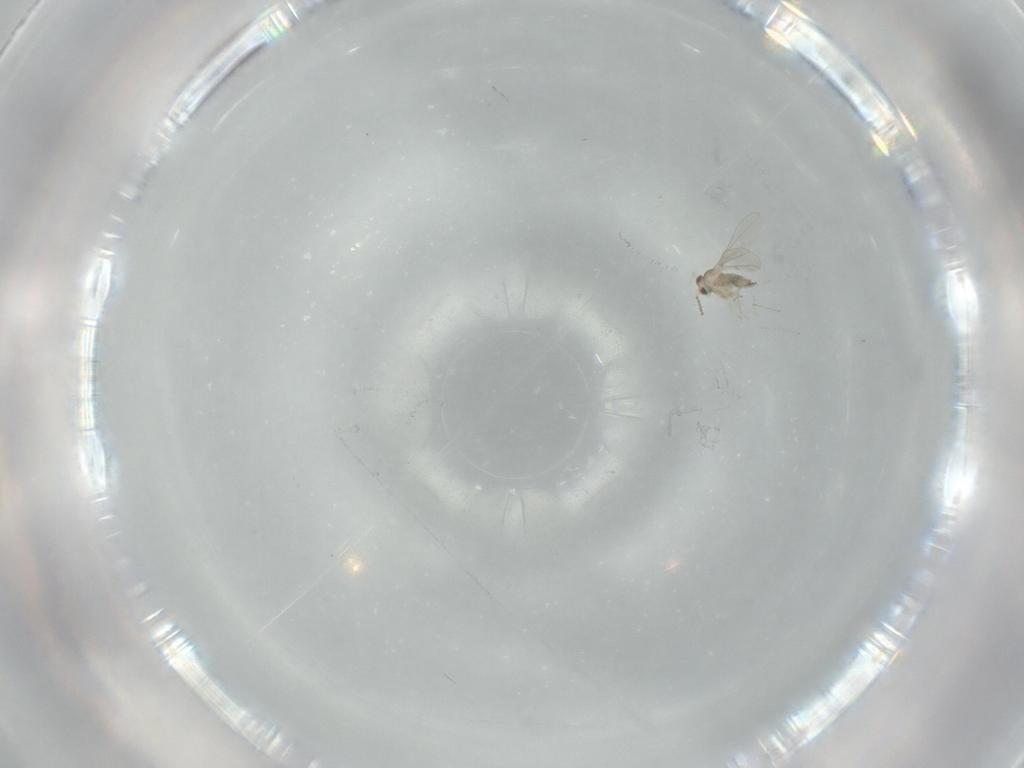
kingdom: Animalia
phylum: Arthropoda
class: Insecta
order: Diptera
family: Cecidomyiidae
